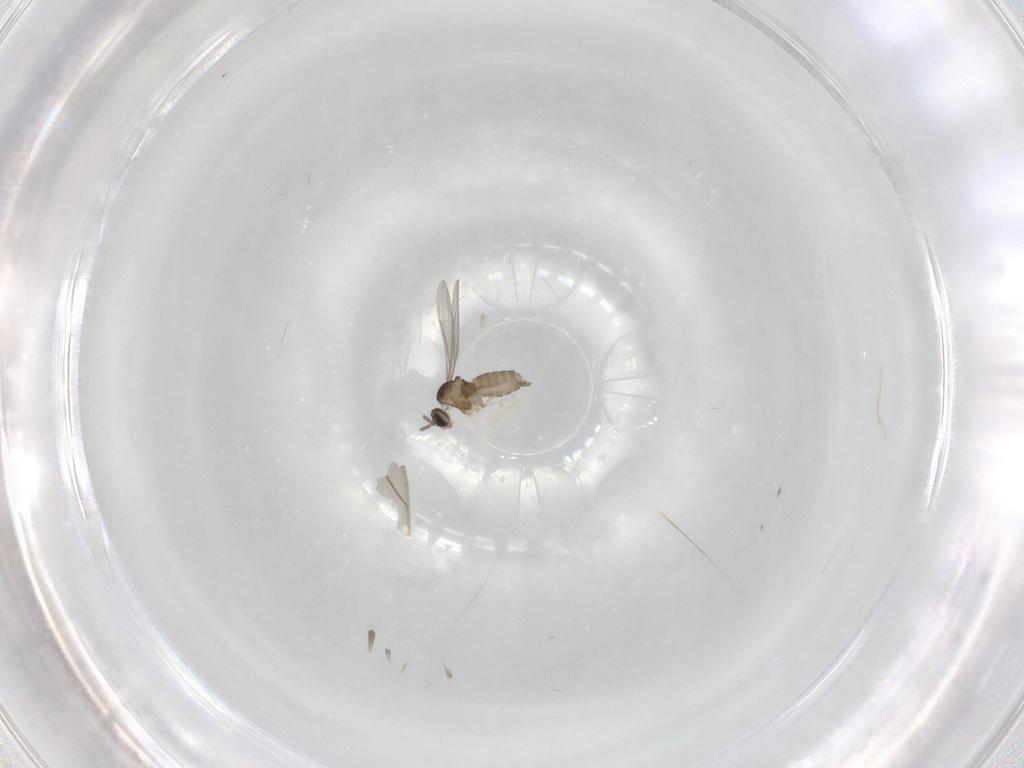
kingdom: Animalia
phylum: Arthropoda
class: Insecta
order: Diptera
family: Cecidomyiidae
